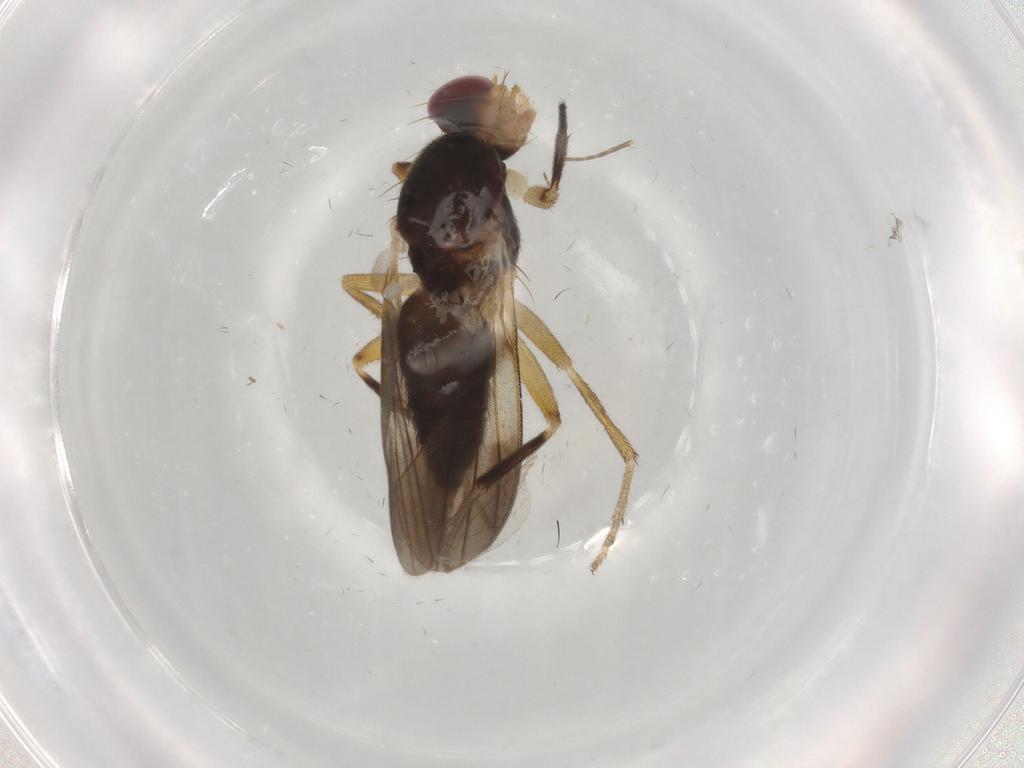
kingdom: Animalia
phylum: Arthropoda
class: Insecta
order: Diptera
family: Clusiidae
